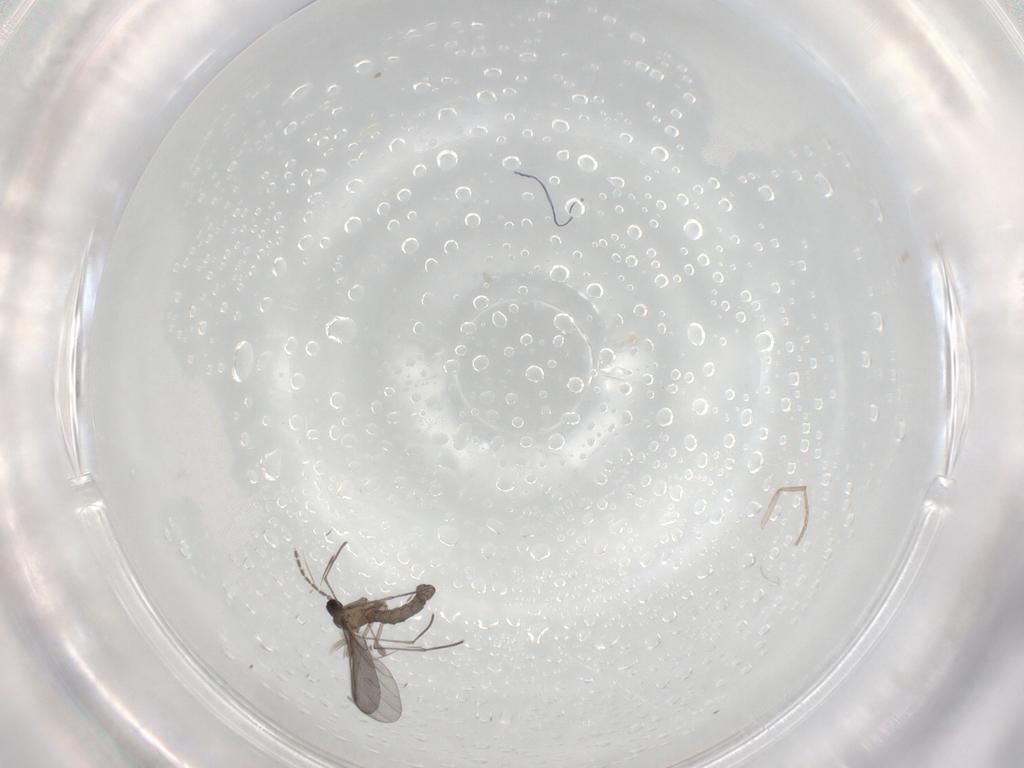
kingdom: Animalia
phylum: Arthropoda
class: Insecta
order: Diptera
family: Sciaridae
